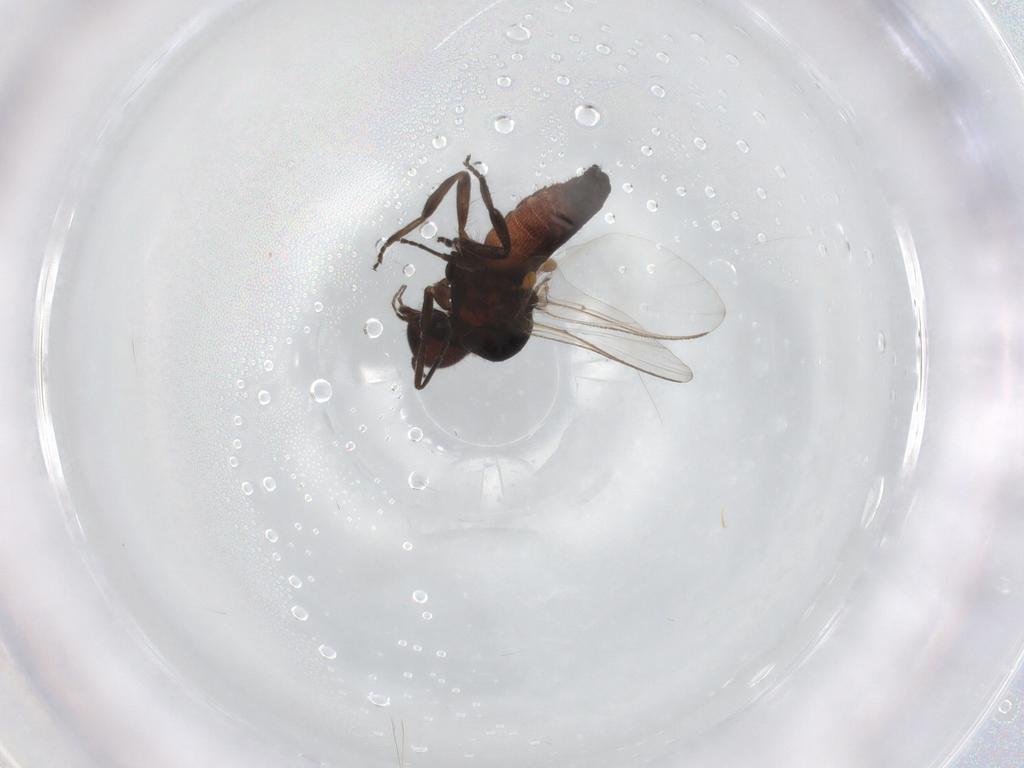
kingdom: Animalia
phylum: Arthropoda
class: Insecta
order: Diptera
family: Simuliidae
